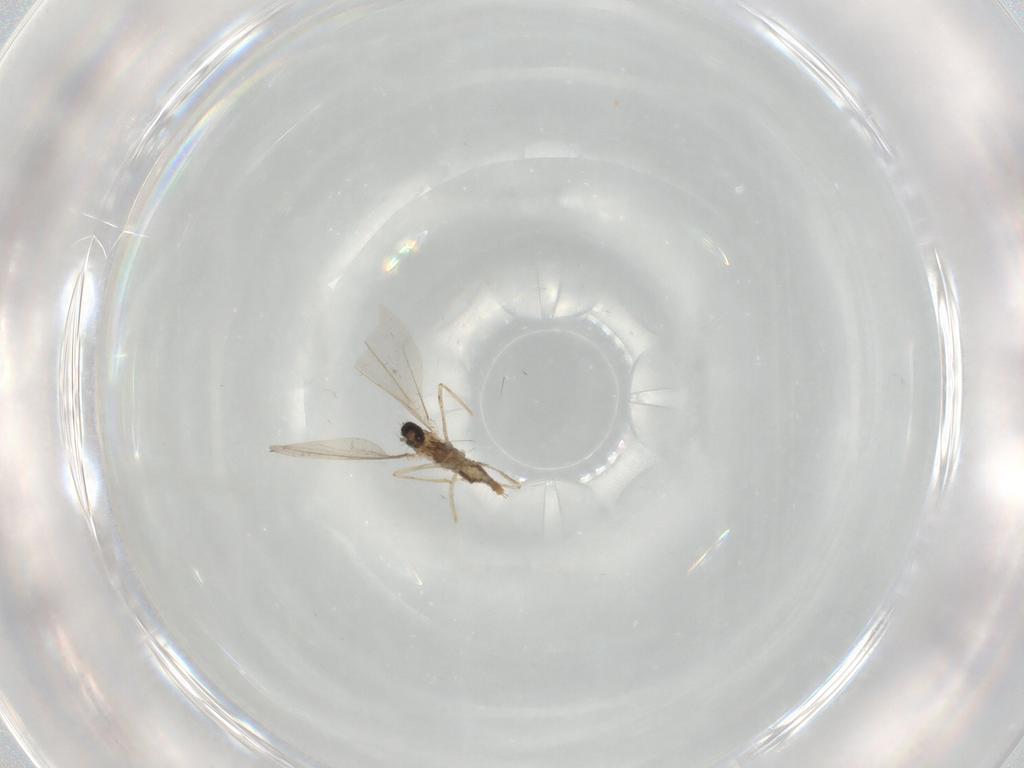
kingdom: Animalia
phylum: Arthropoda
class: Insecta
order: Diptera
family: Cecidomyiidae
